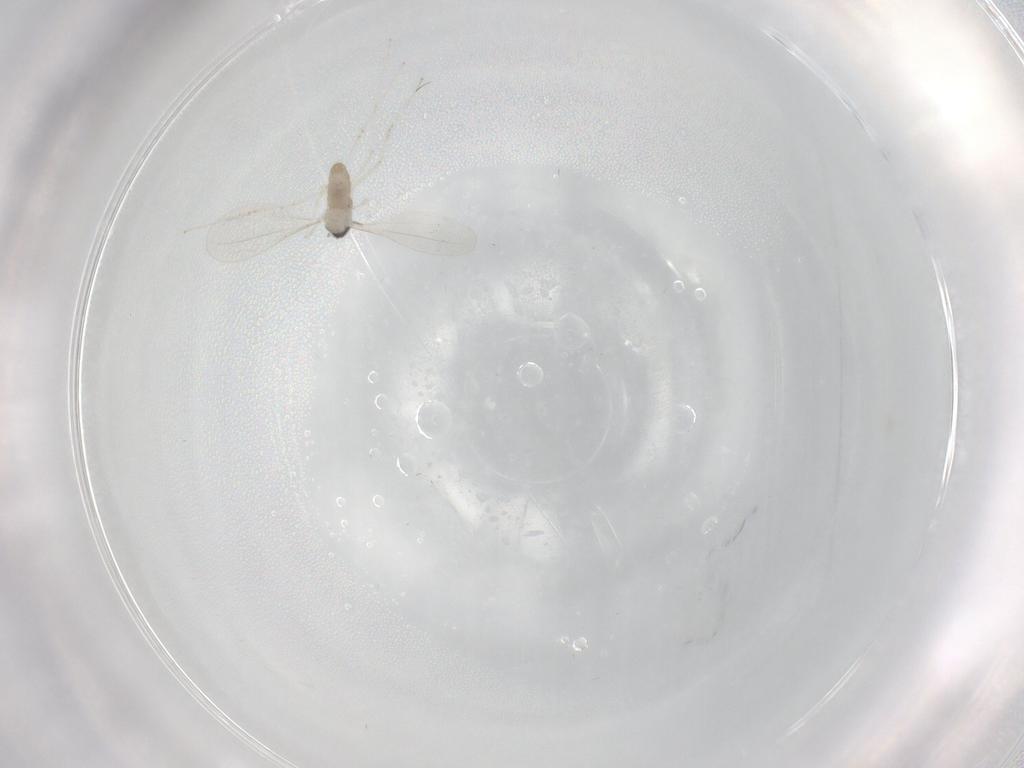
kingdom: Animalia
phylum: Arthropoda
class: Insecta
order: Diptera
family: Cecidomyiidae
